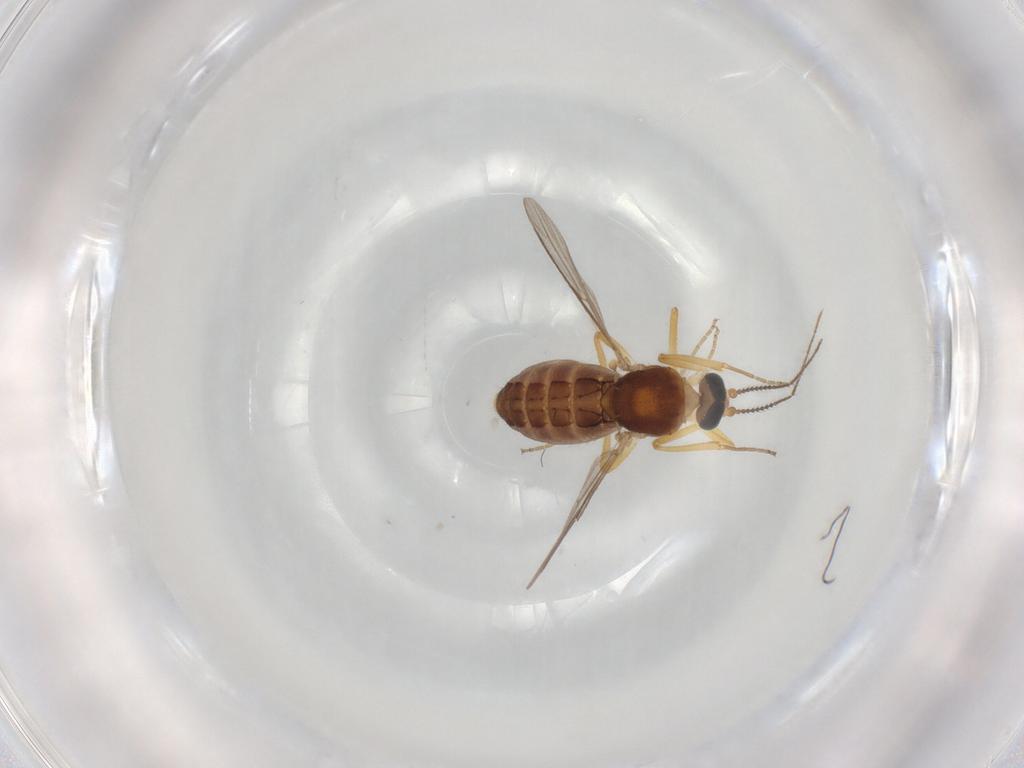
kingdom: Animalia
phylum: Arthropoda
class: Insecta
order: Diptera
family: Ceratopogonidae
